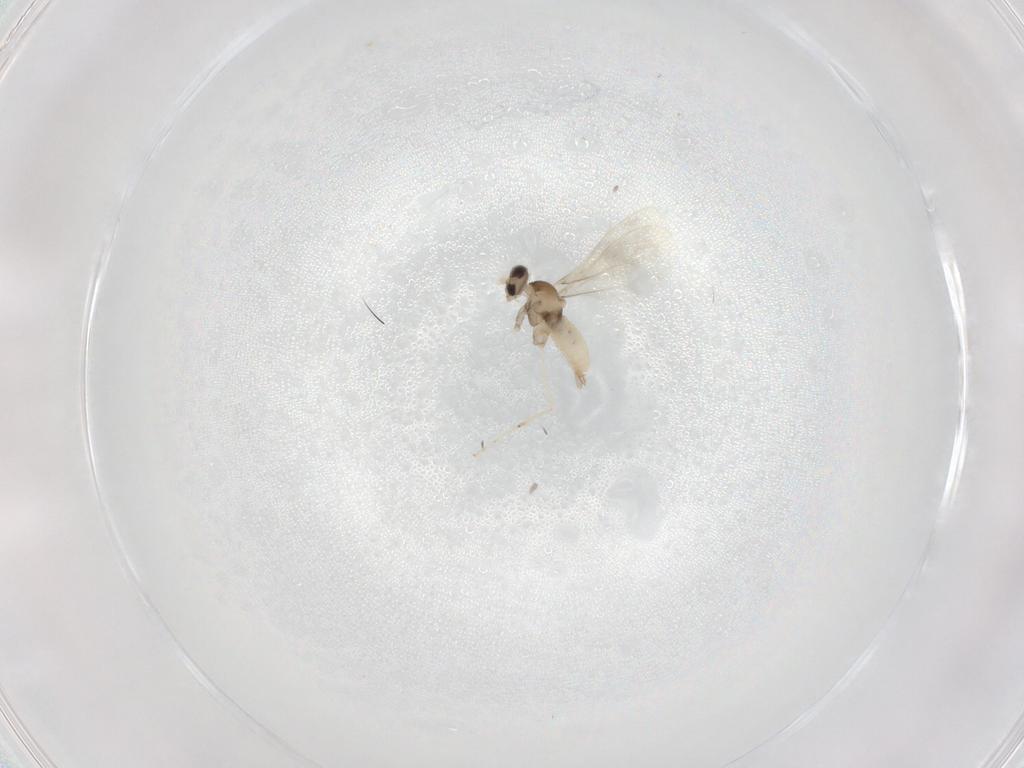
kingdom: Animalia
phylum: Arthropoda
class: Insecta
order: Diptera
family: Cecidomyiidae
